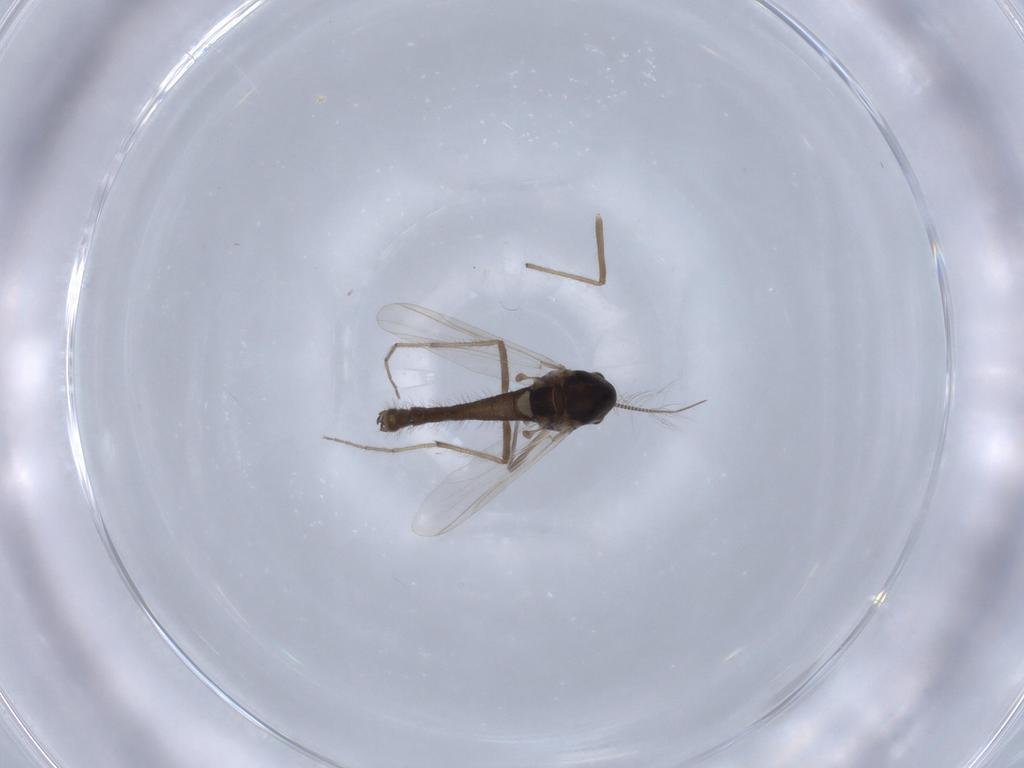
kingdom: Animalia
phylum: Arthropoda
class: Insecta
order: Diptera
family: Chironomidae
